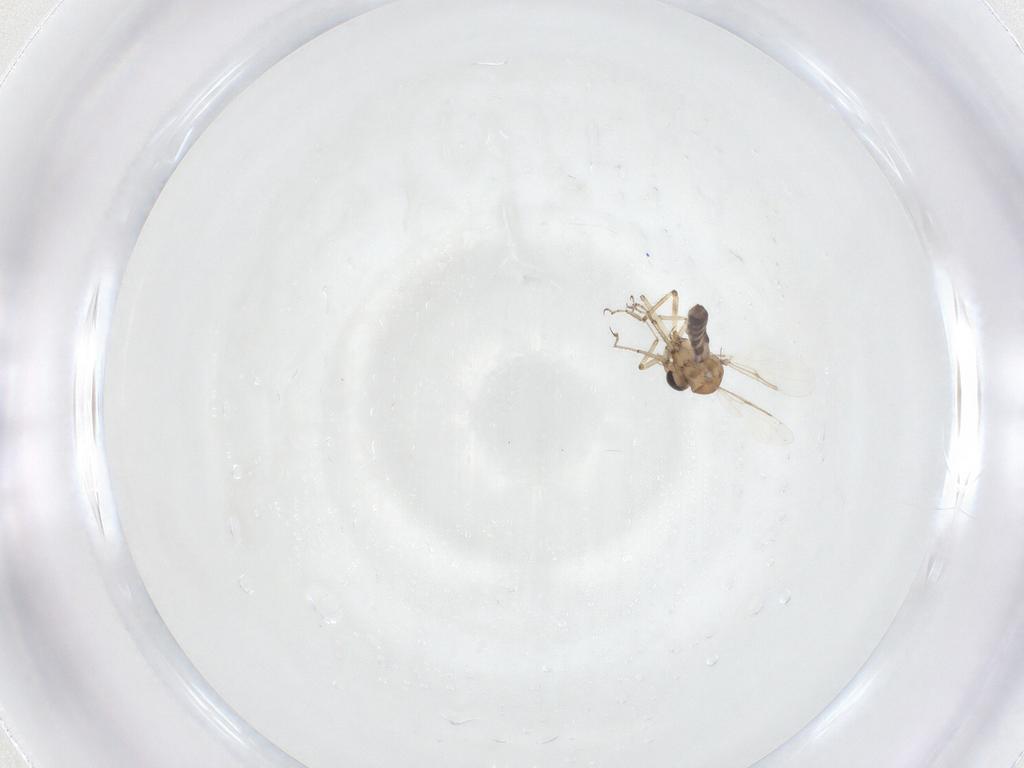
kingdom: Animalia
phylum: Arthropoda
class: Insecta
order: Diptera
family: Ceratopogonidae
